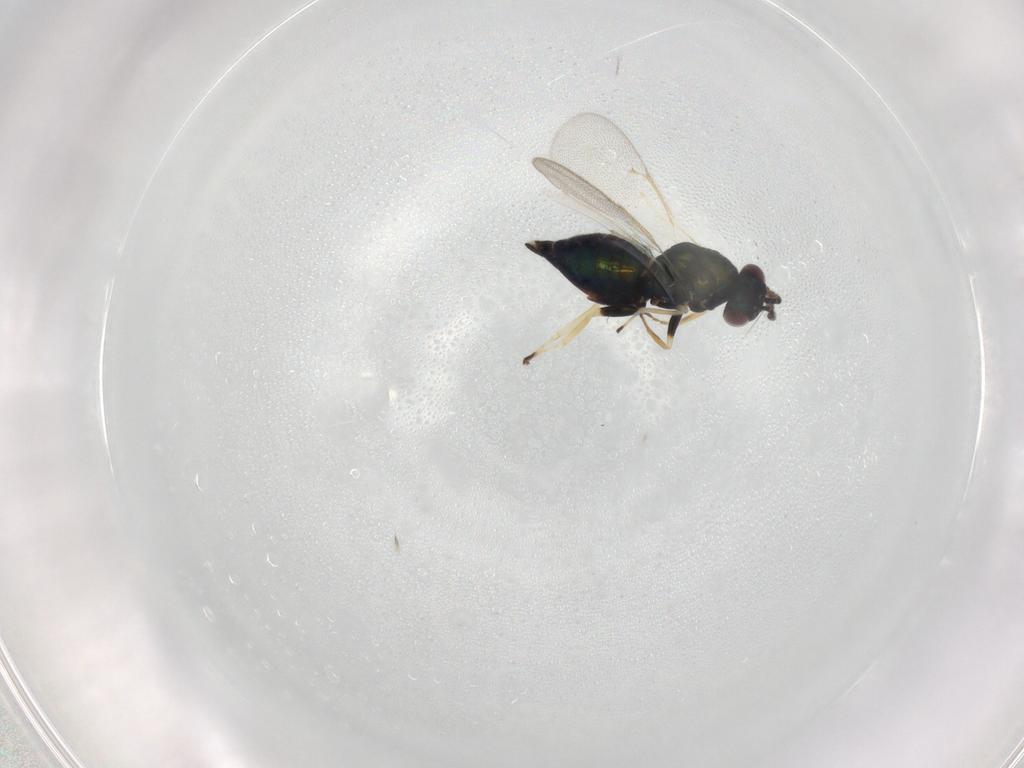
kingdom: Animalia
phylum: Arthropoda
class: Insecta
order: Hymenoptera
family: Eulophidae
